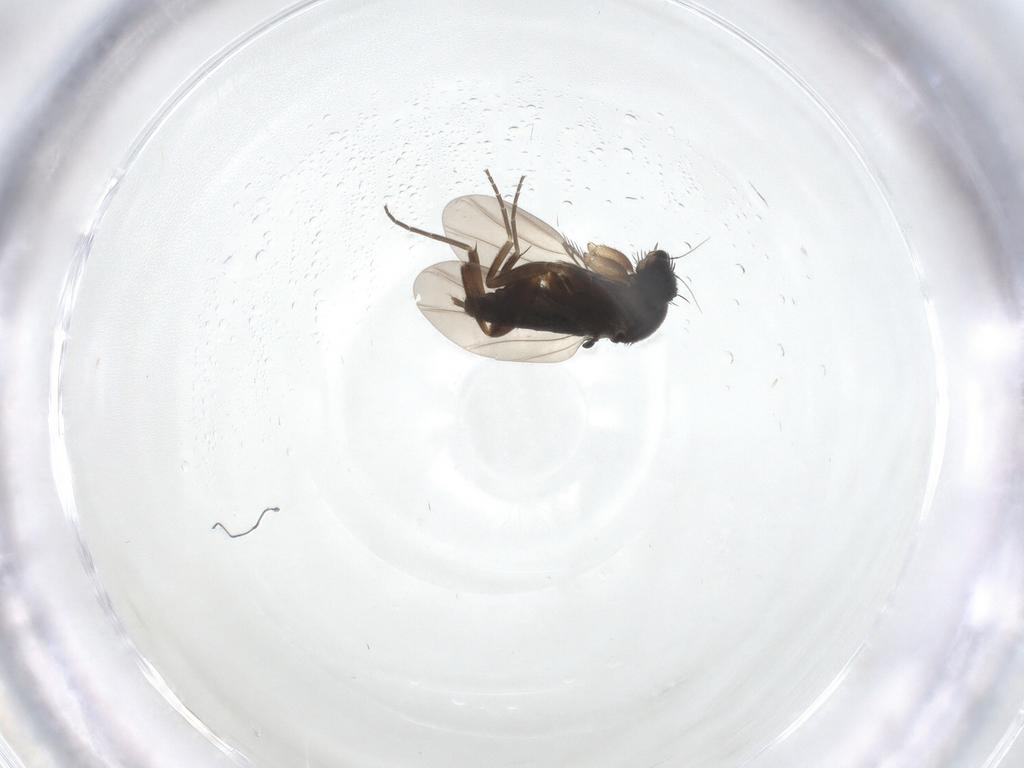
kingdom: Animalia
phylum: Arthropoda
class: Insecta
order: Diptera
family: Phoridae
